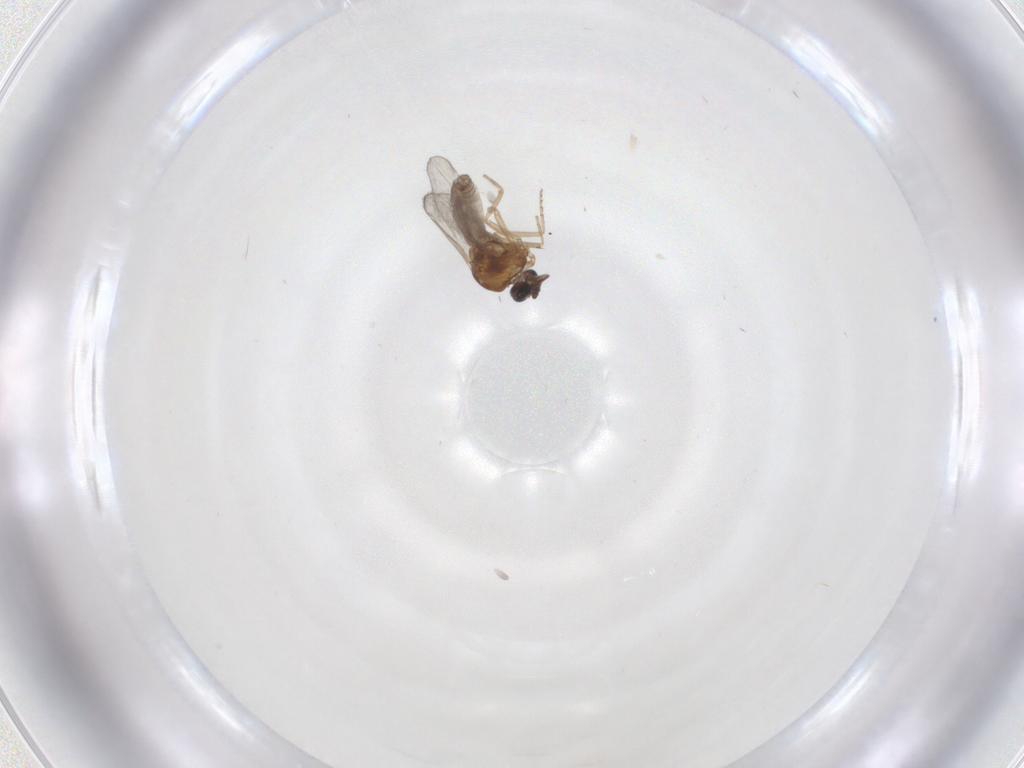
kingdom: Animalia
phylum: Arthropoda
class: Insecta
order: Diptera
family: Ceratopogonidae
